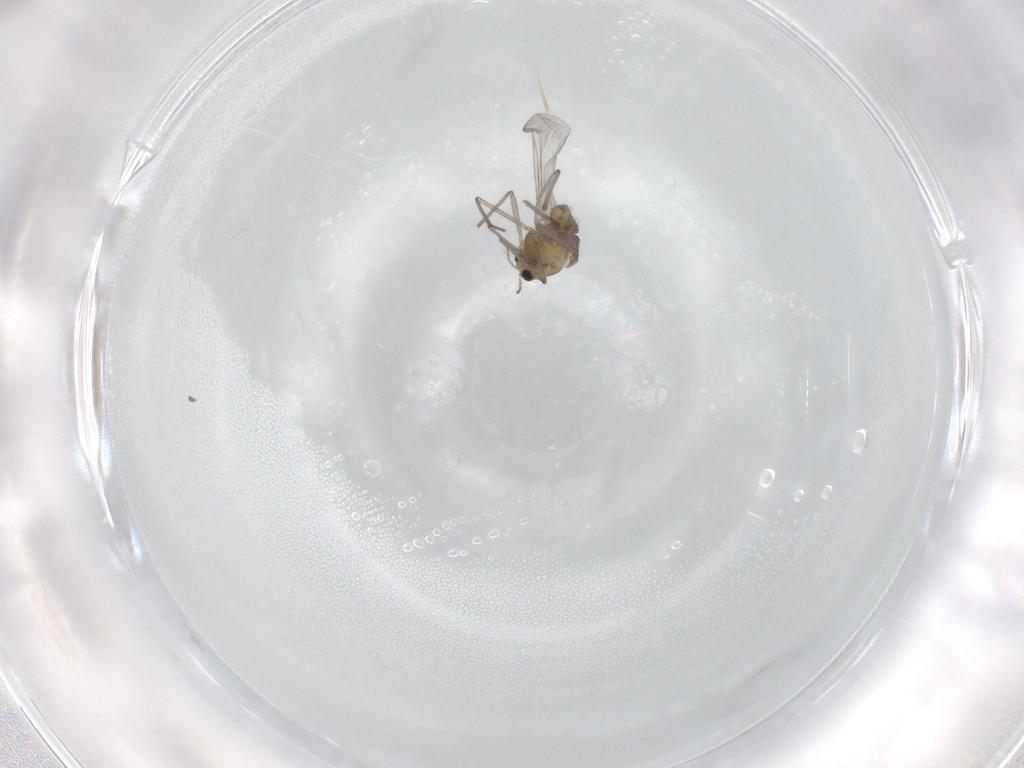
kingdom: Animalia
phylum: Arthropoda
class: Insecta
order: Diptera
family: Chironomidae
